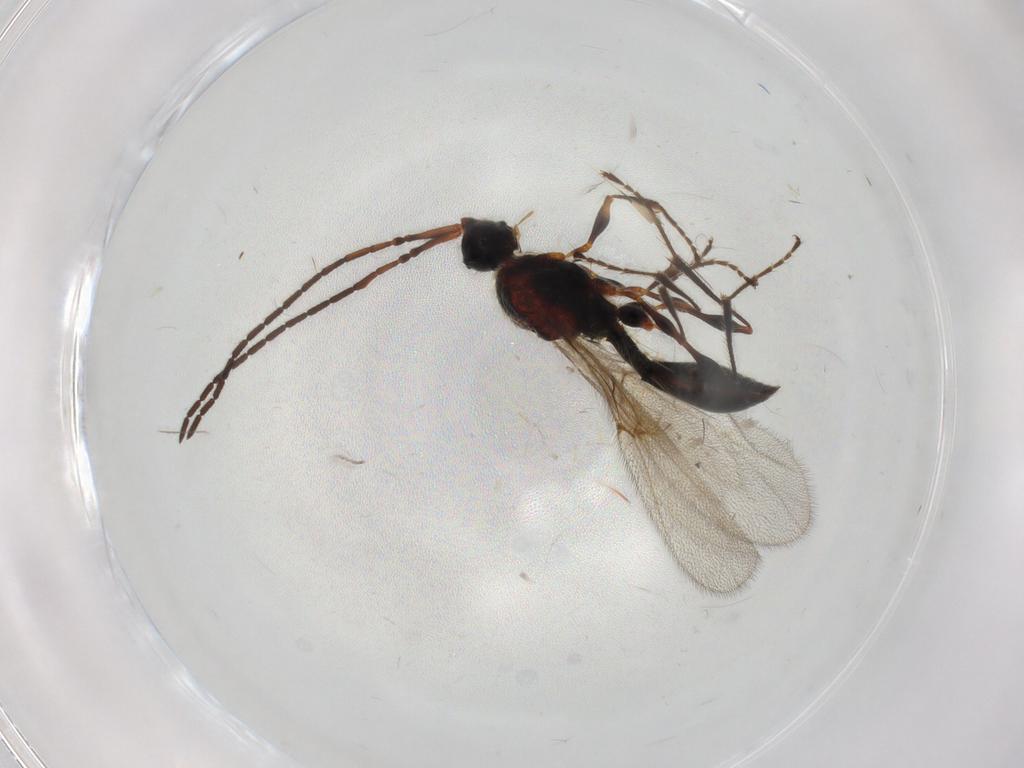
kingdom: Animalia
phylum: Arthropoda
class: Insecta
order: Hymenoptera
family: Diapriidae
